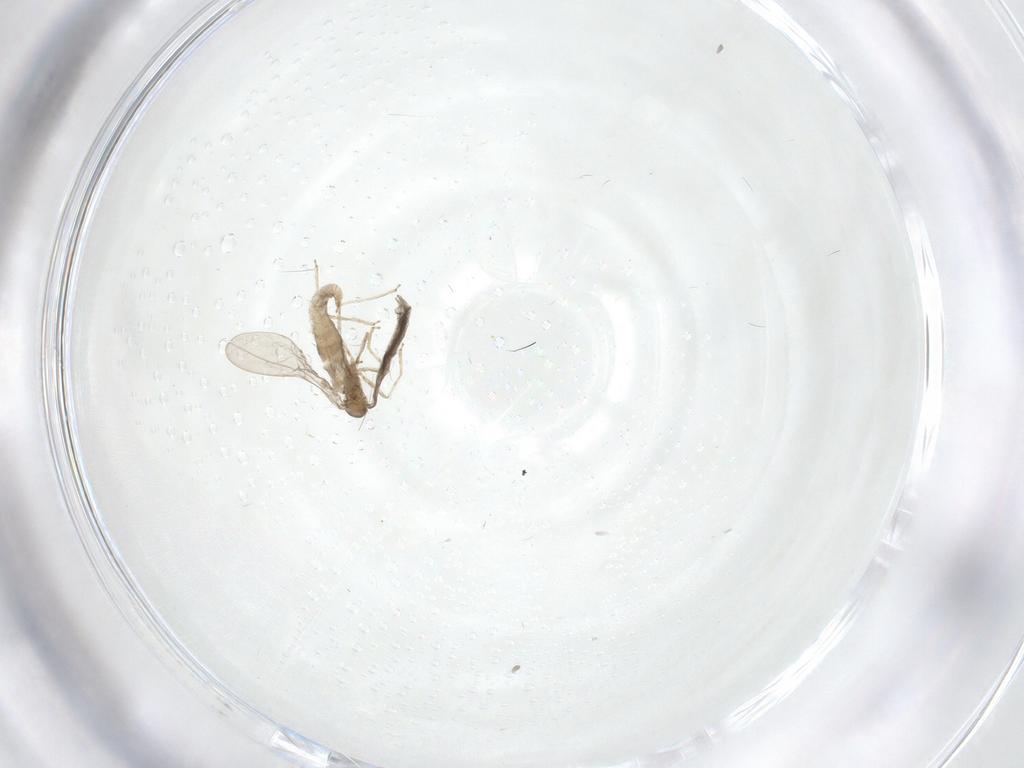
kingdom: Animalia
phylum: Arthropoda
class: Insecta
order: Diptera
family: Cecidomyiidae
